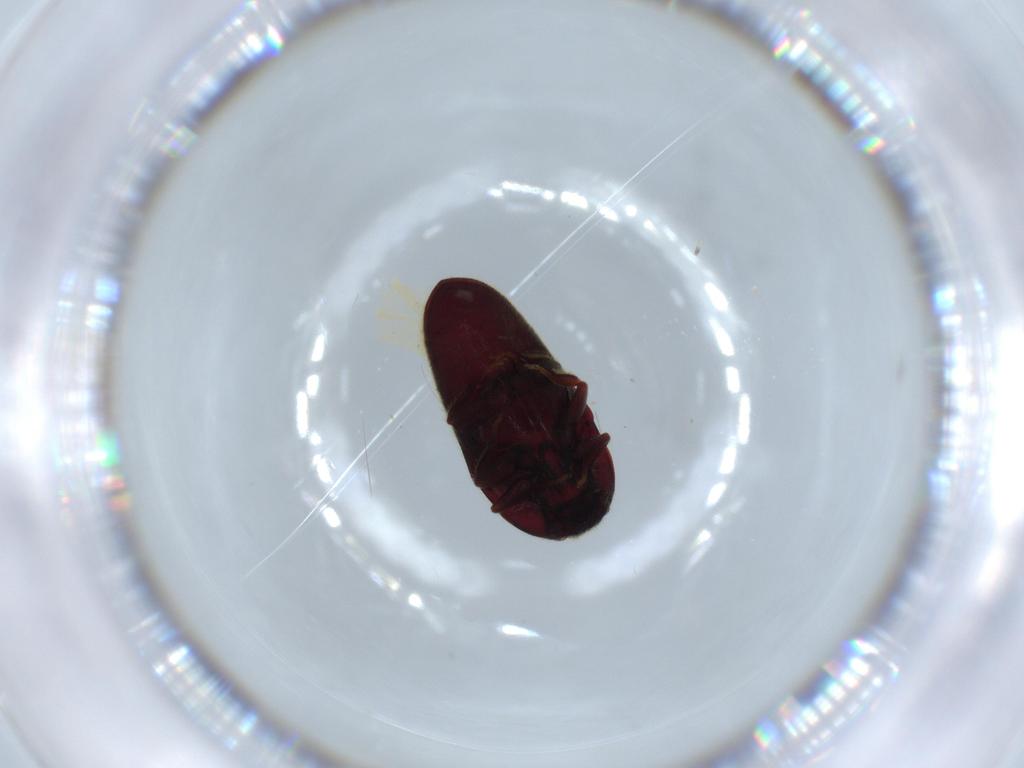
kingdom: Animalia
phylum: Arthropoda
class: Insecta
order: Coleoptera
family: Throscidae
